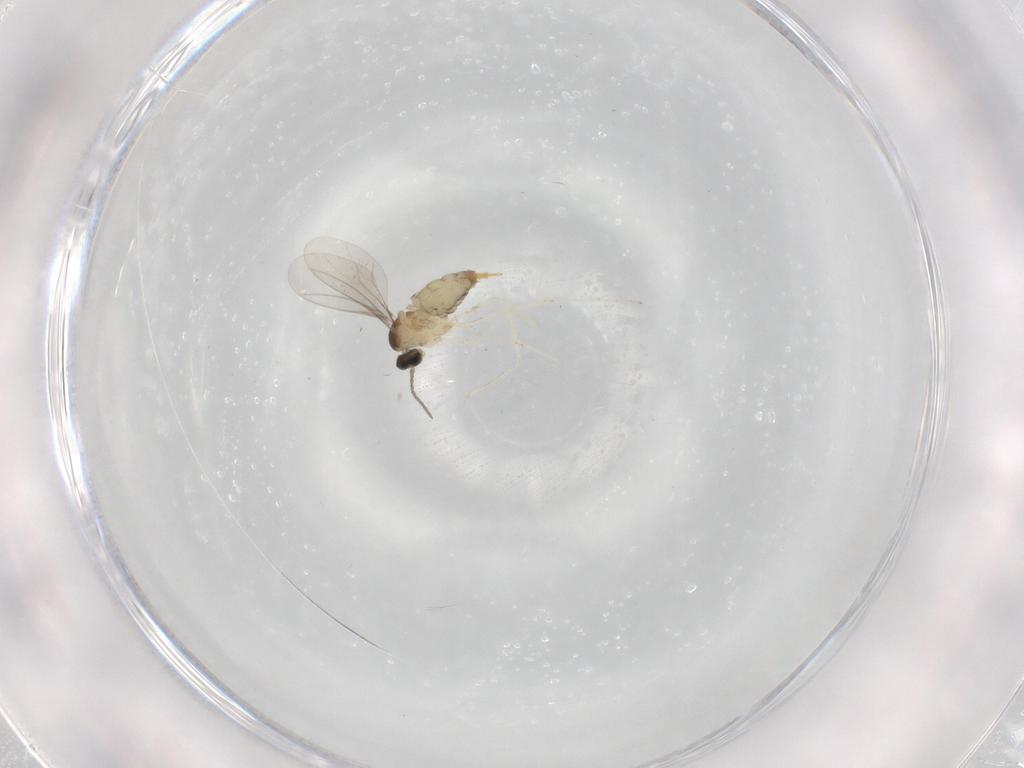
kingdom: Animalia
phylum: Arthropoda
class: Insecta
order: Diptera
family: Cecidomyiidae
